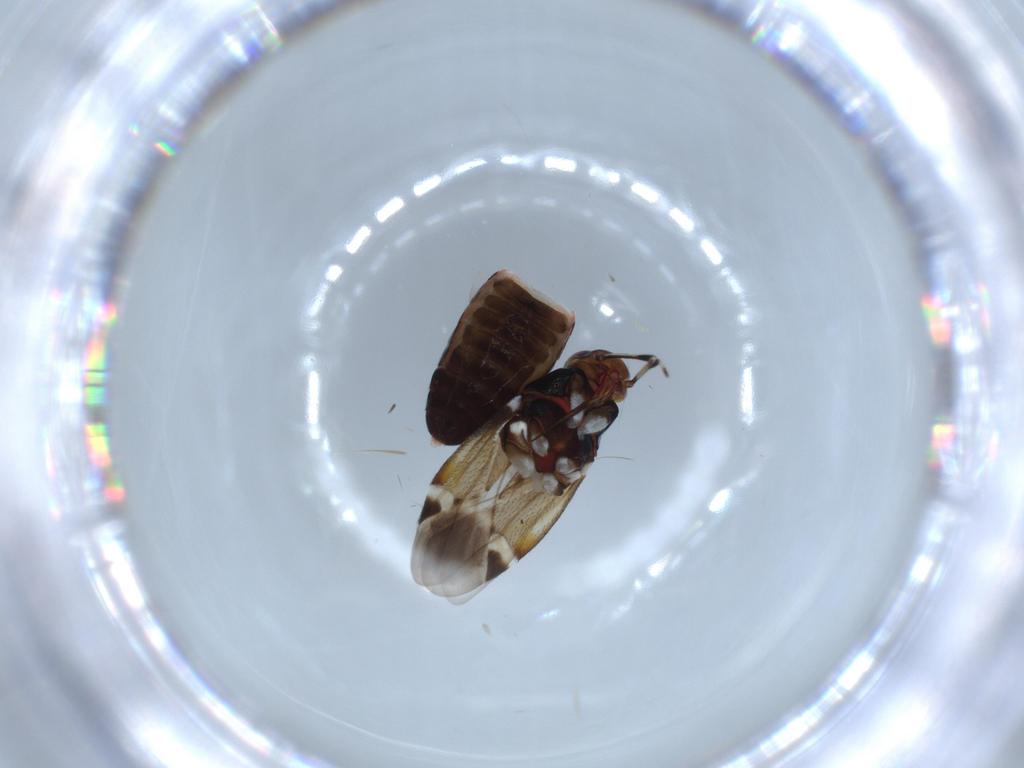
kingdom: Animalia
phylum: Arthropoda
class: Insecta
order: Hemiptera
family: Miridae
